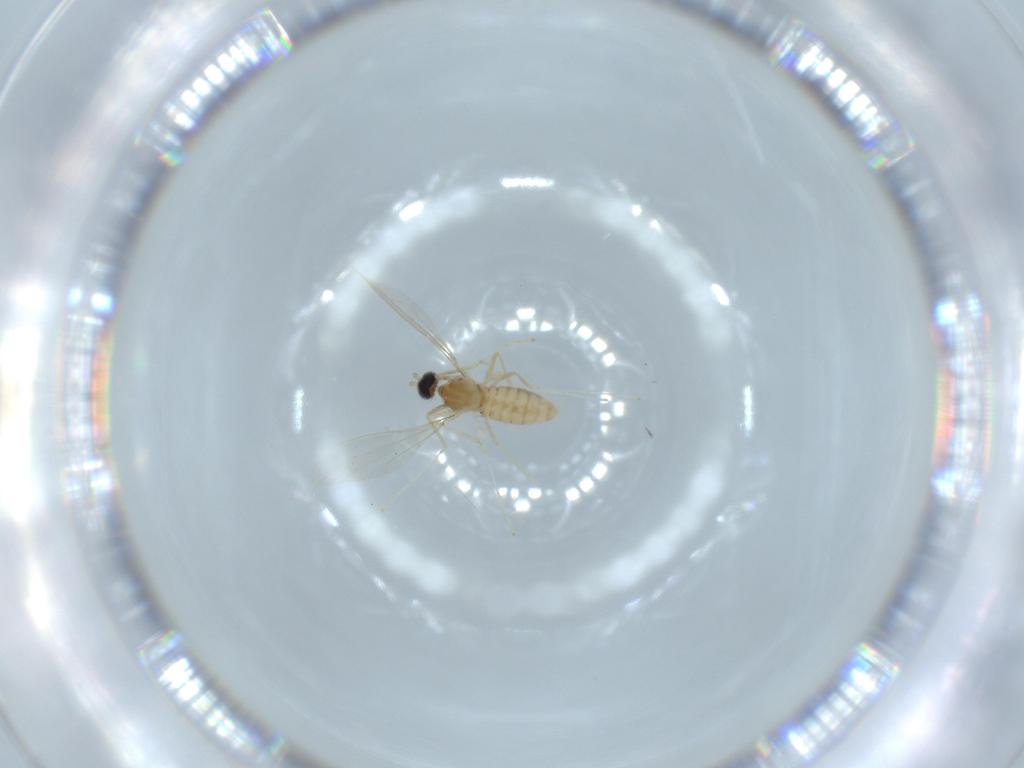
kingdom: Animalia
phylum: Arthropoda
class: Insecta
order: Diptera
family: Cecidomyiidae
